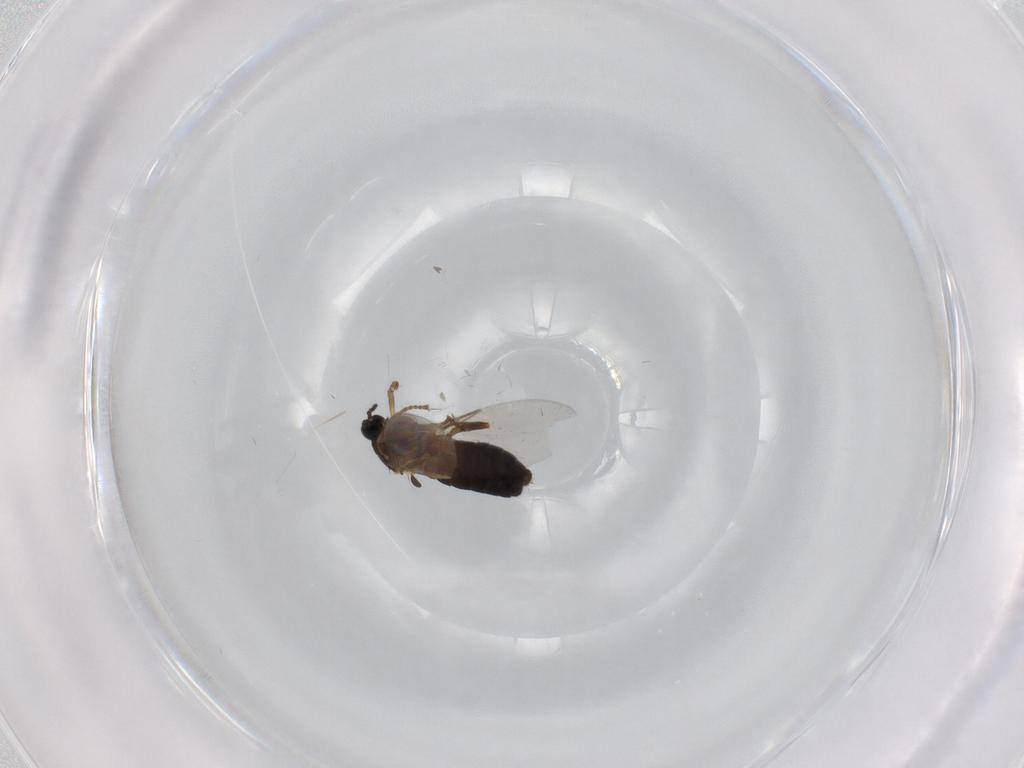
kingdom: Animalia
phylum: Arthropoda
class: Insecta
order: Diptera
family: Scatopsidae
